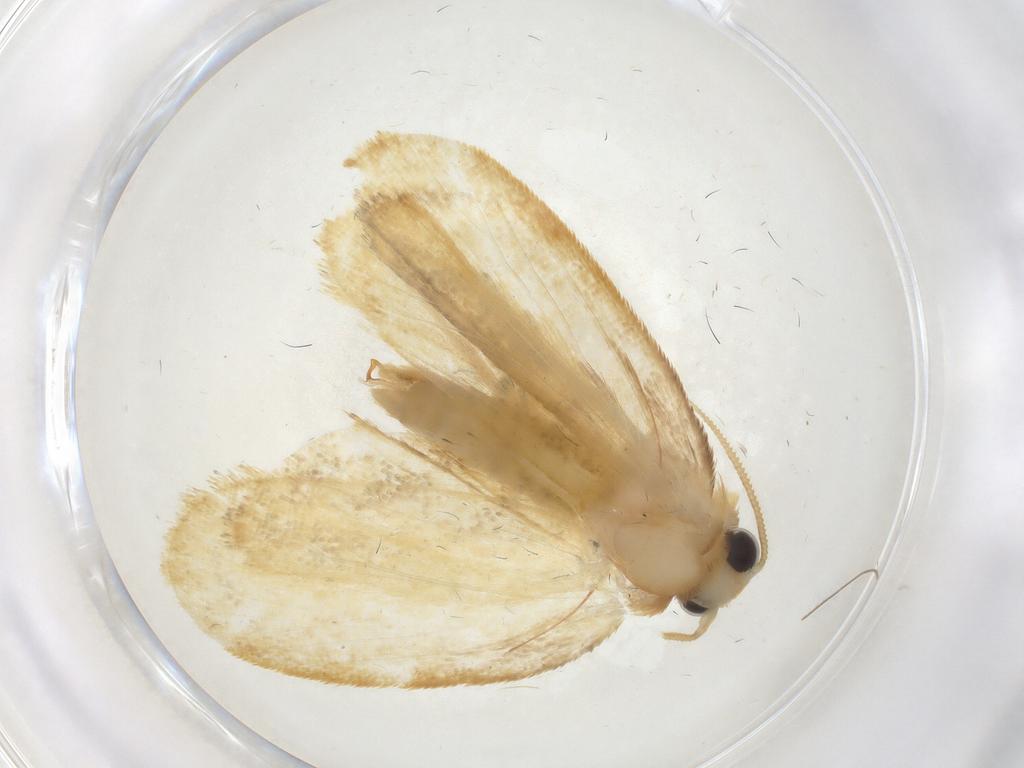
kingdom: Animalia
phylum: Arthropoda
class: Insecta
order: Lepidoptera
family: Psychidae
